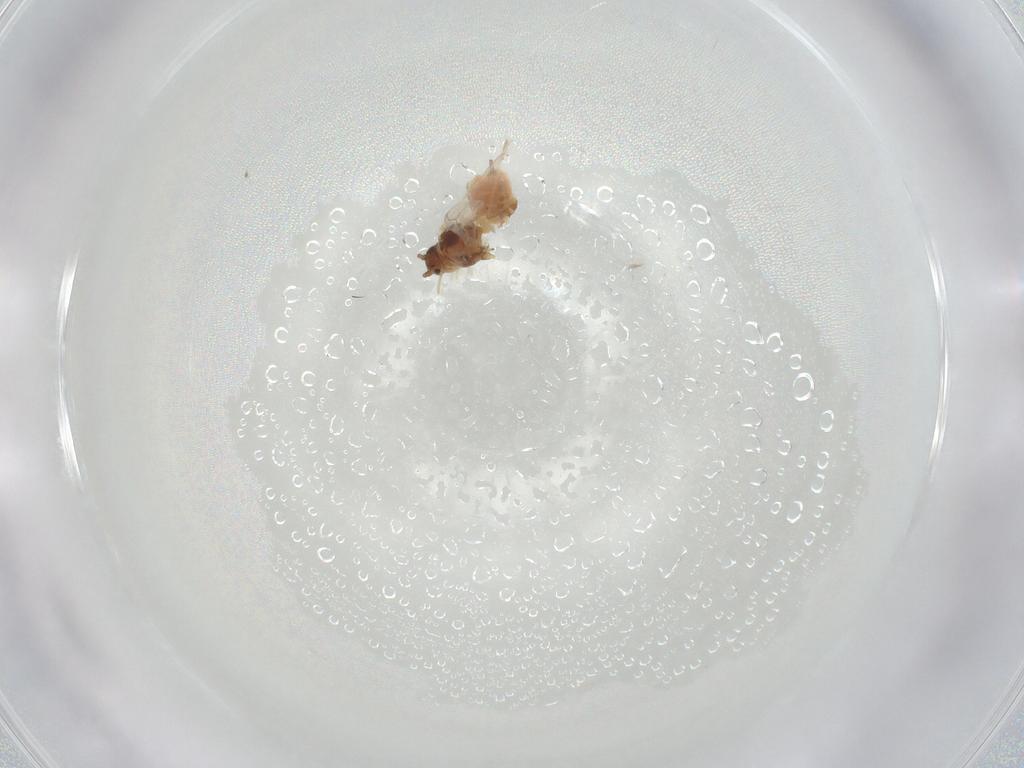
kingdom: Animalia
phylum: Arthropoda
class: Insecta
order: Hemiptera
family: Aphididae
